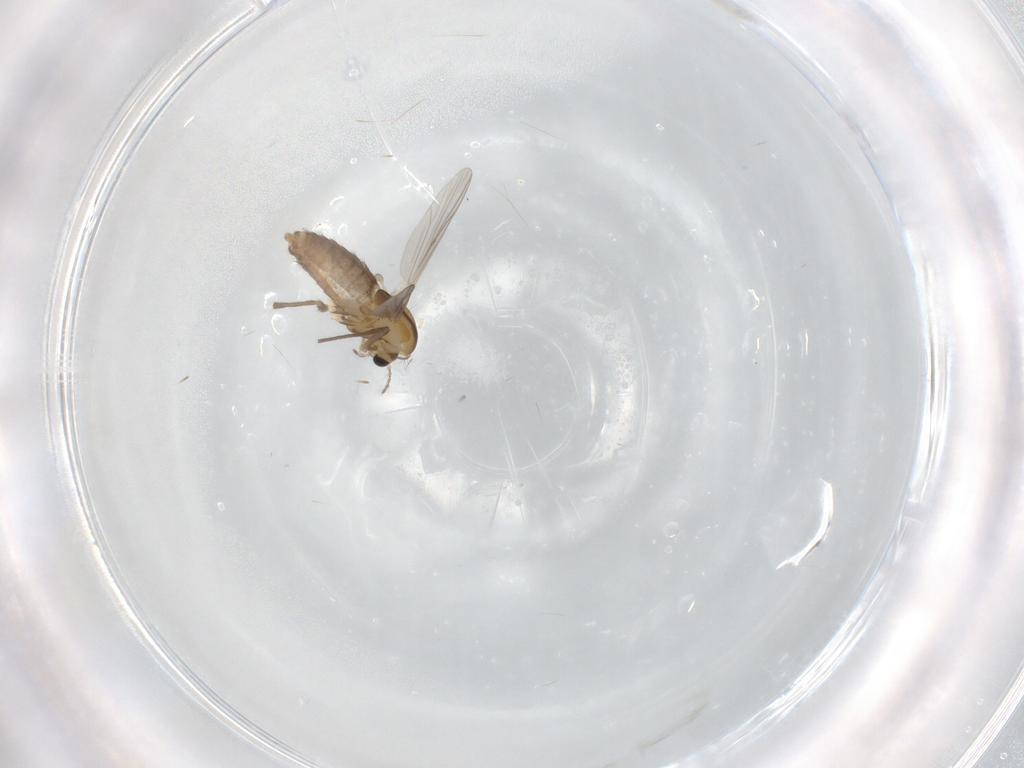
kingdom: Animalia
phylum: Arthropoda
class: Insecta
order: Diptera
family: Chironomidae
